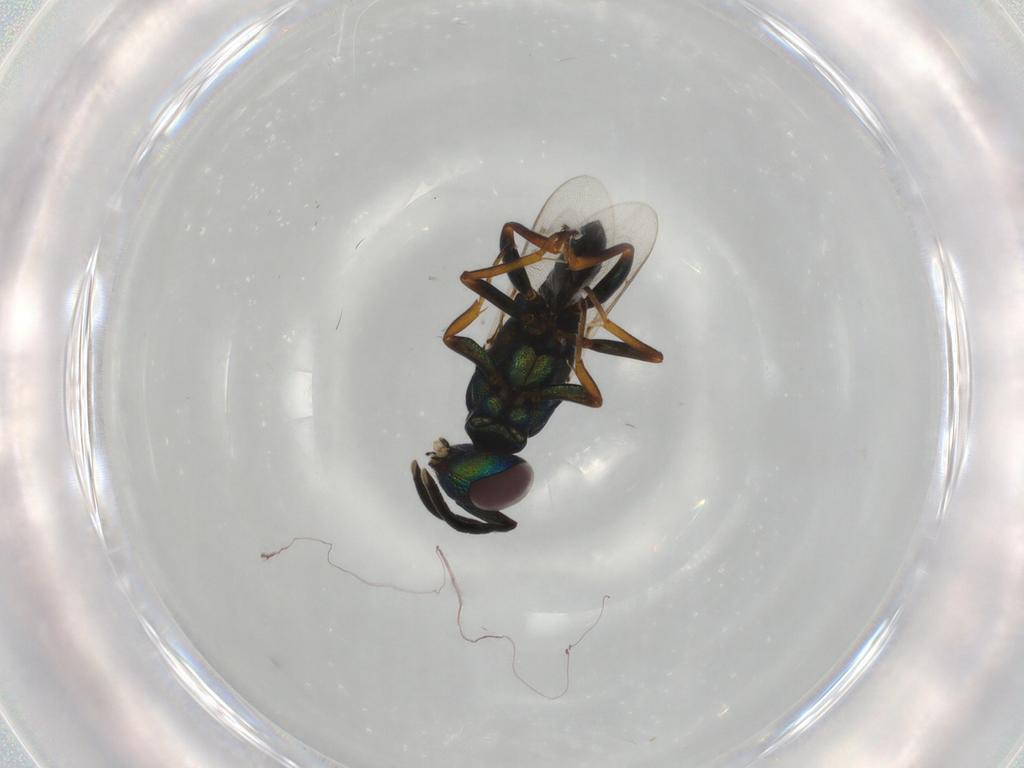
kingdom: Animalia
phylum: Arthropoda
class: Insecta
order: Hymenoptera
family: Eupelmidae
